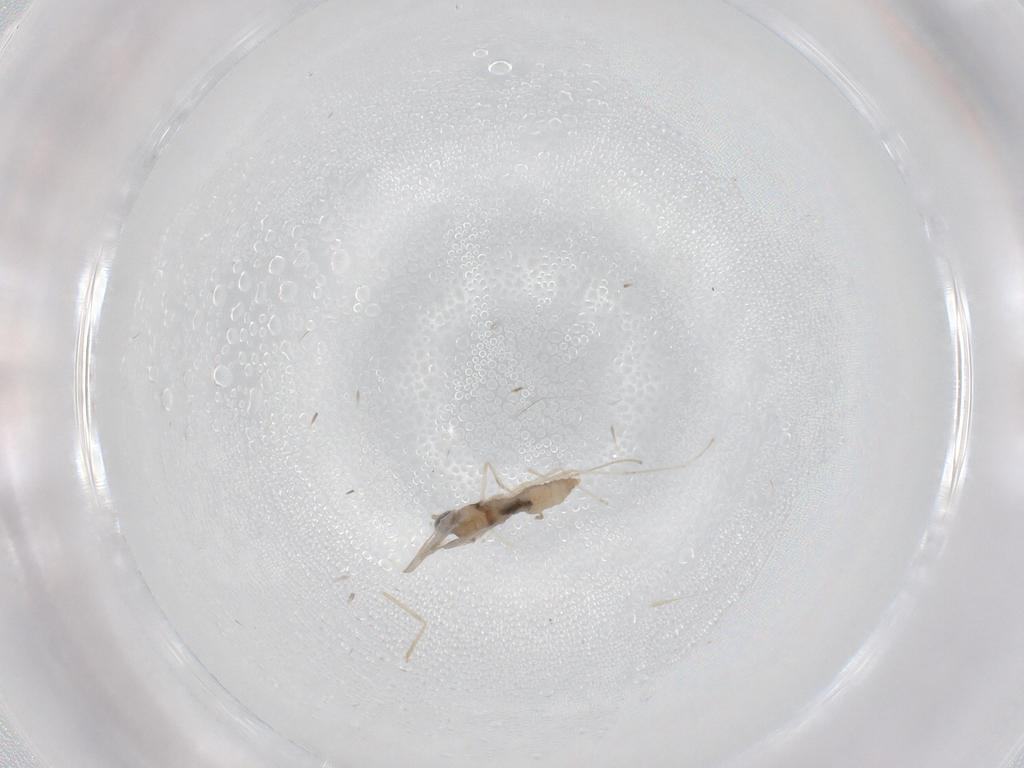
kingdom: Animalia
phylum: Arthropoda
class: Insecta
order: Diptera
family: Cecidomyiidae
